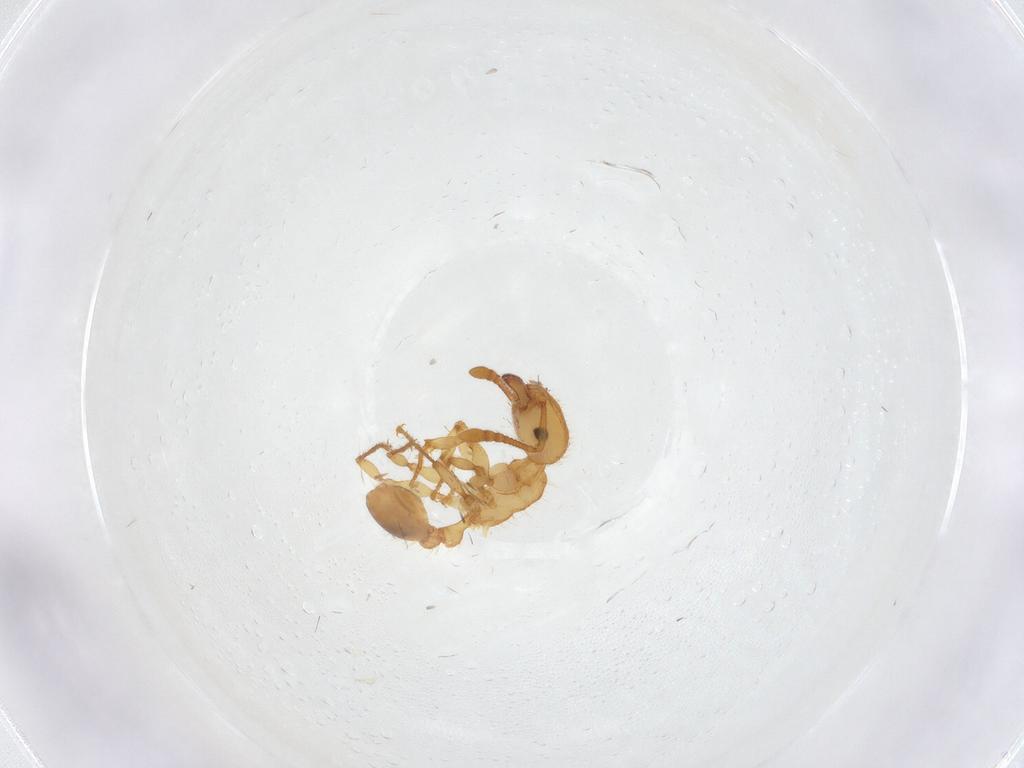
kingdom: Animalia
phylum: Arthropoda
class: Insecta
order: Hymenoptera
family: Formicidae
